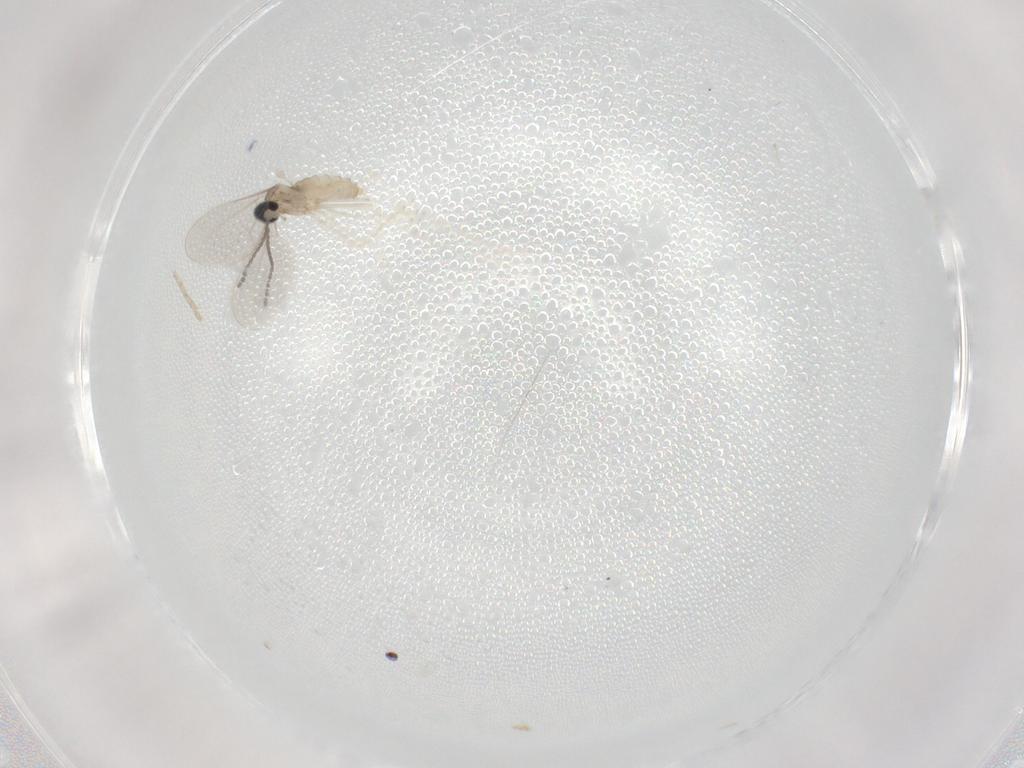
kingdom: Animalia
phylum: Arthropoda
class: Insecta
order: Diptera
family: Cecidomyiidae
